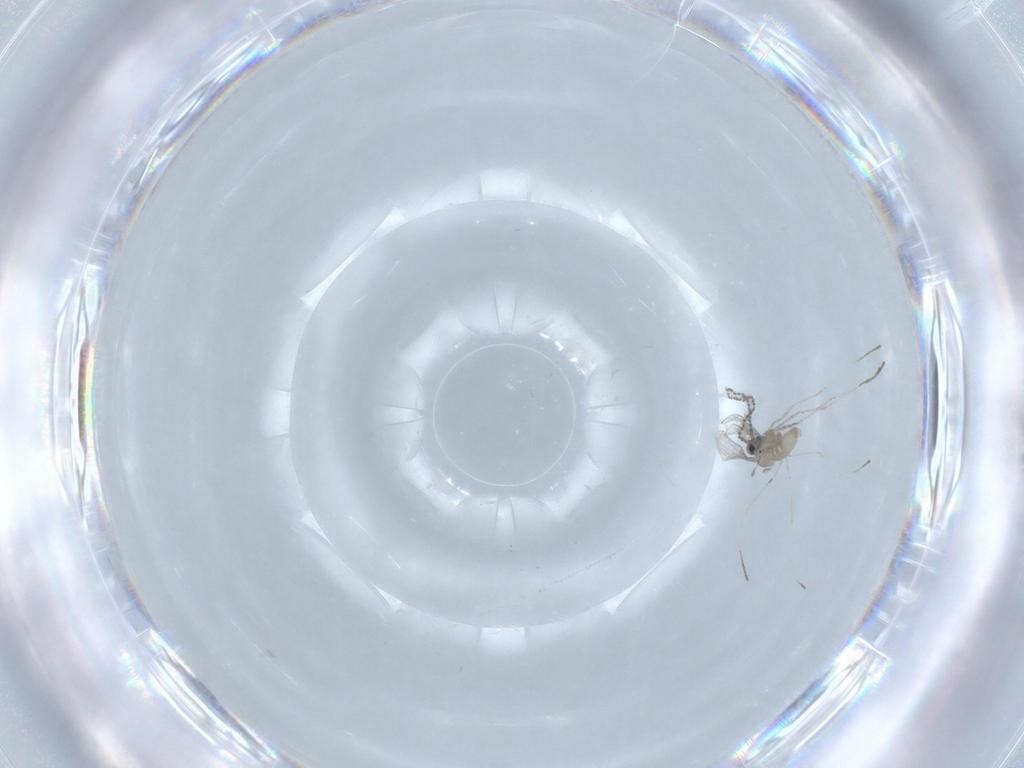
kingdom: Animalia
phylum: Arthropoda
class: Insecta
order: Diptera
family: Cecidomyiidae
